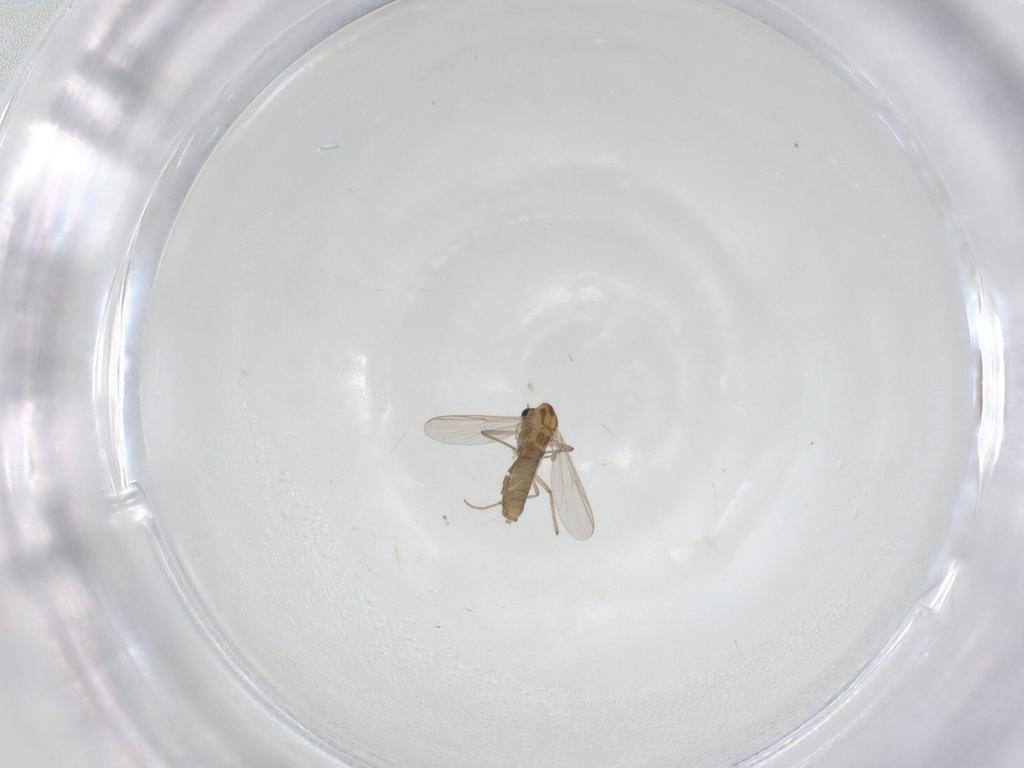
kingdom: Animalia
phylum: Arthropoda
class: Insecta
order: Diptera
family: Chironomidae
